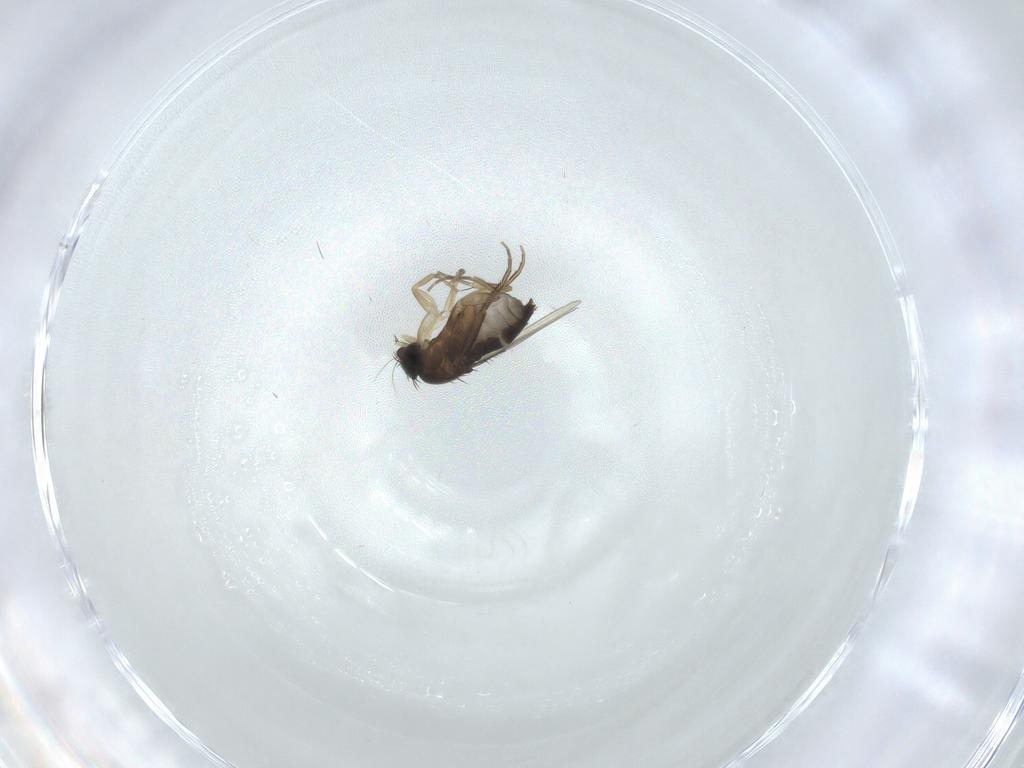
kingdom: Animalia
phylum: Arthropoda
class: Insecta
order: Diptera
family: Phoridae
